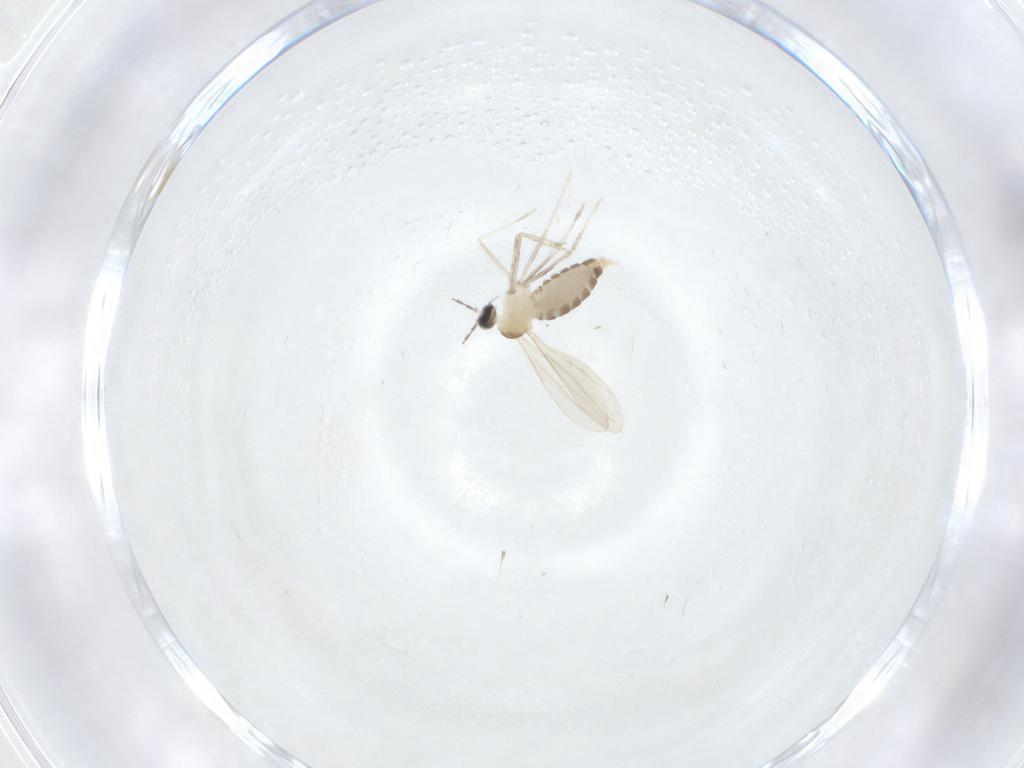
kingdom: Animalia
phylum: Arthropoda
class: Insecta
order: Diptera
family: Cecidomyiidae
